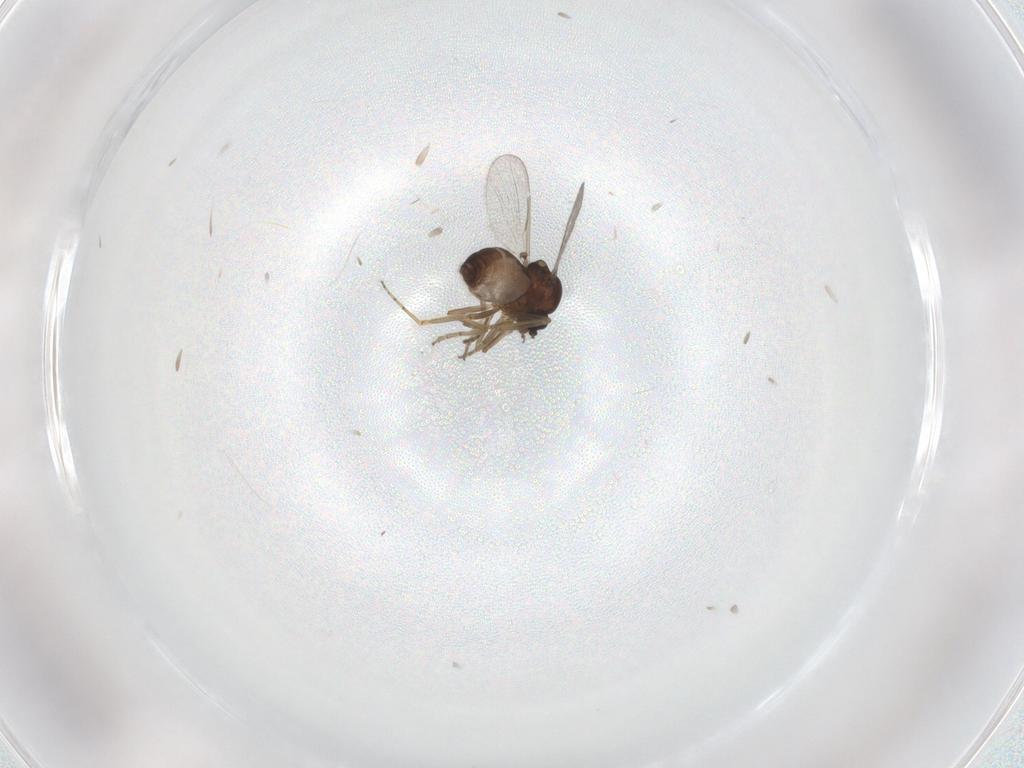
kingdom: Animalia
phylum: Arthropoda
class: Insecta
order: Diptera
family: Ceratopogonidae
